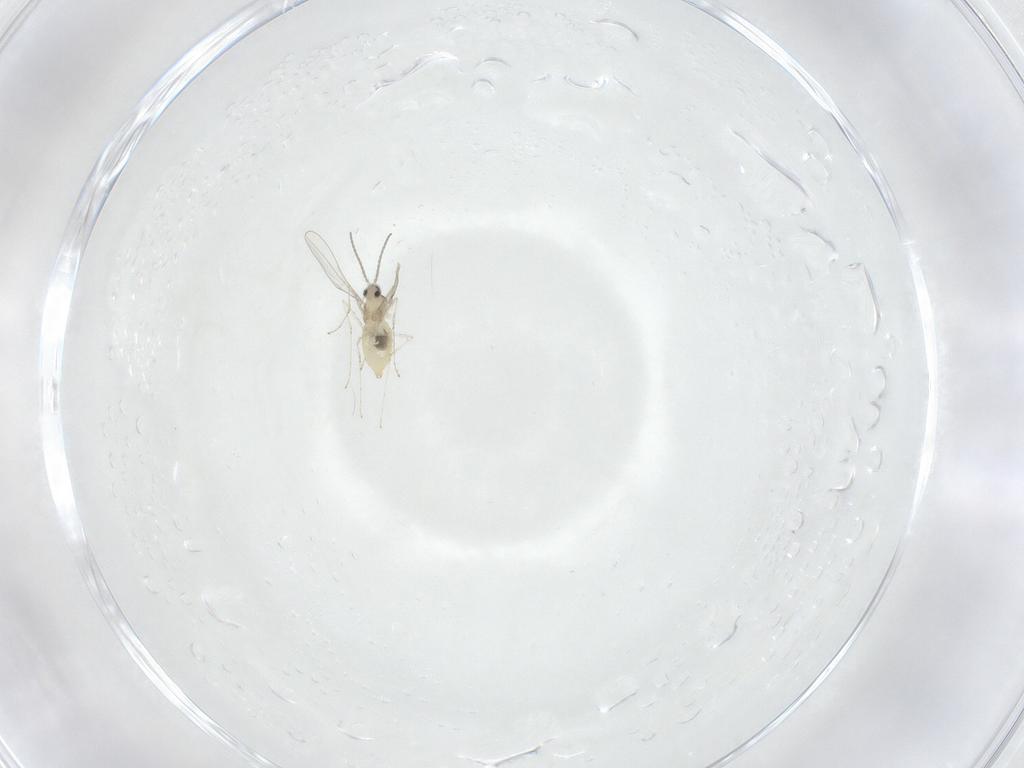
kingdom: Animalia
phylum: Arthropoda
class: Insecta
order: Diptera
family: Cecidomyiidae
